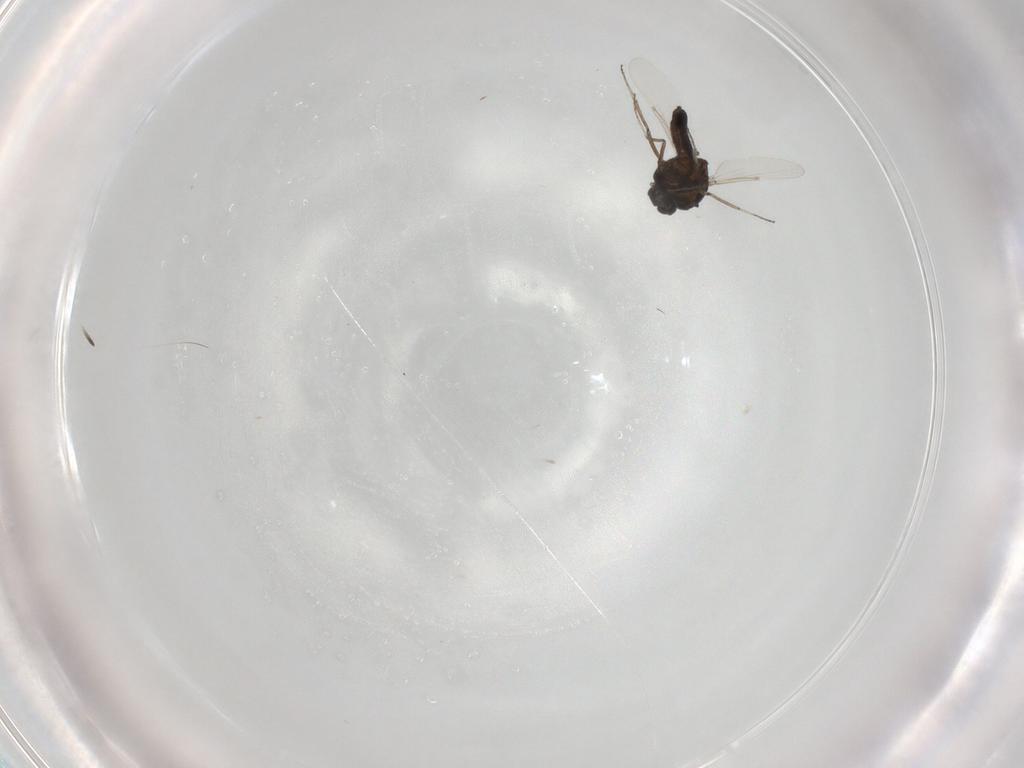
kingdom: Animalia
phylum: Arthropoda
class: Insecta
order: Diptera
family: Ceratopogonidae
